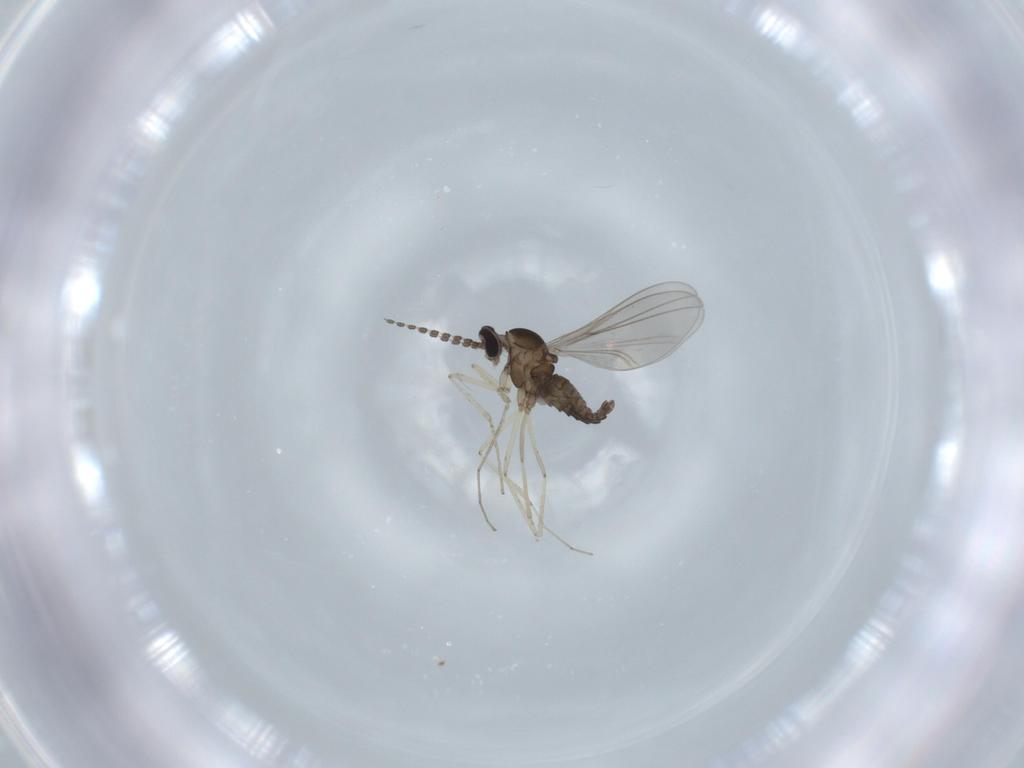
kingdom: Animalia
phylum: Arthropoda
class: Insecta
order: Diptera
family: Cecidomyiidae
